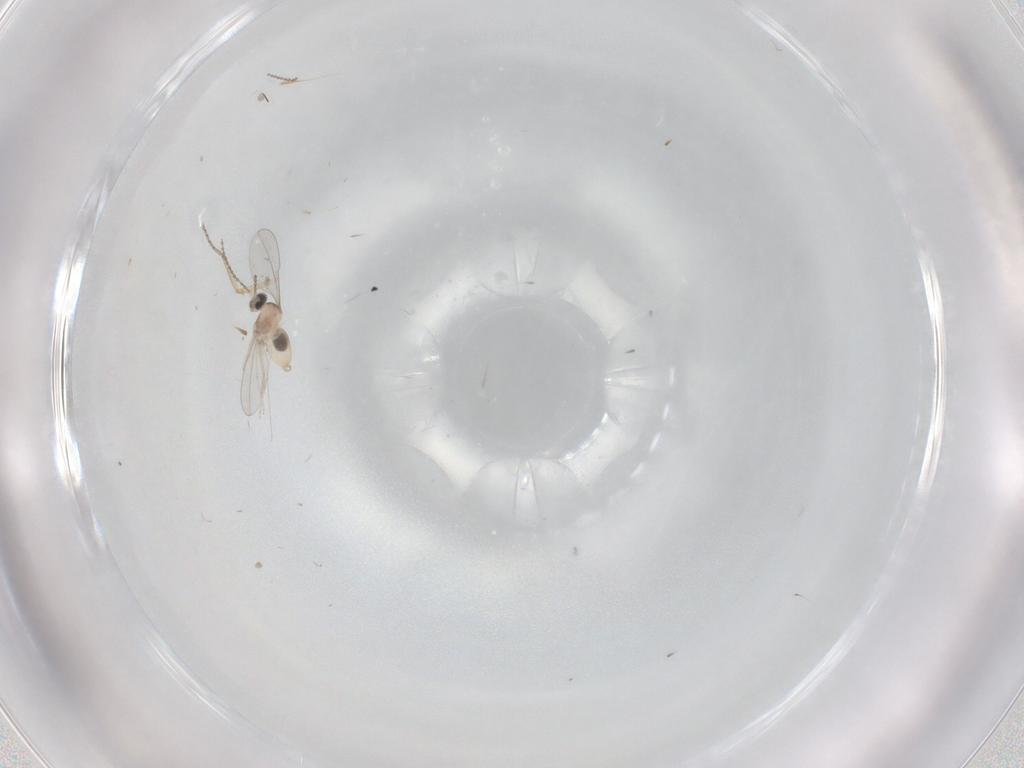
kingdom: Animalia
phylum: Arthropoda
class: Insecta
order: Diptera
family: Cecidomyiidae
